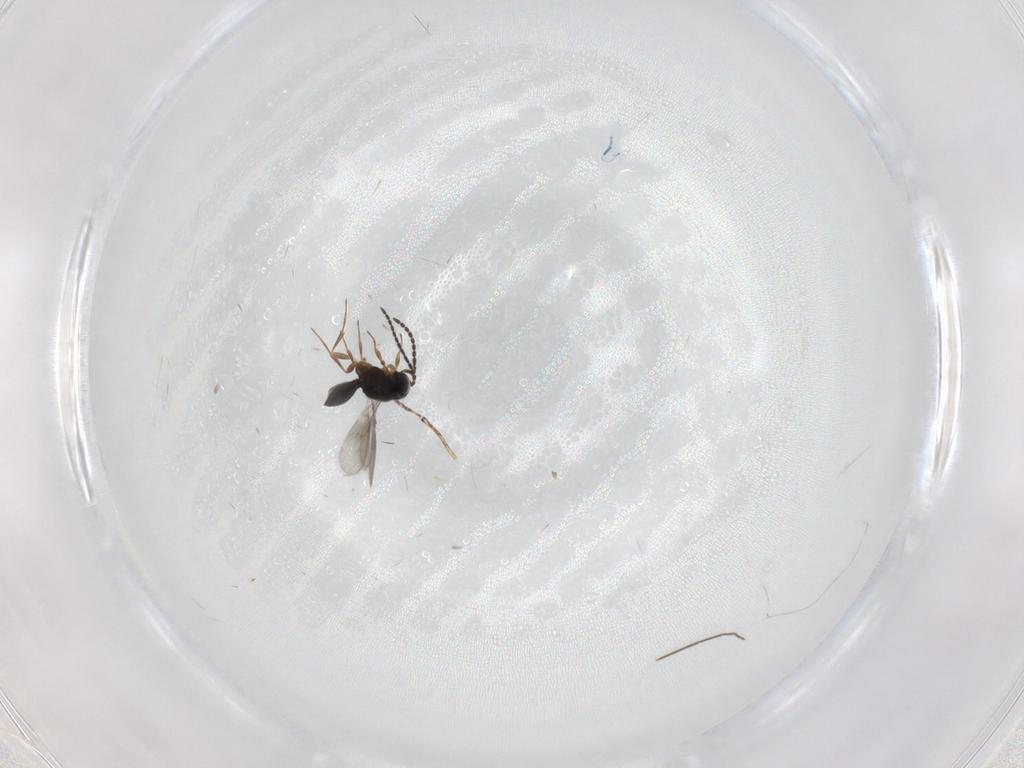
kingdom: Animalia
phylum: Arthropoda
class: Insecta
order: Hymenoptera
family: Scelionidae
